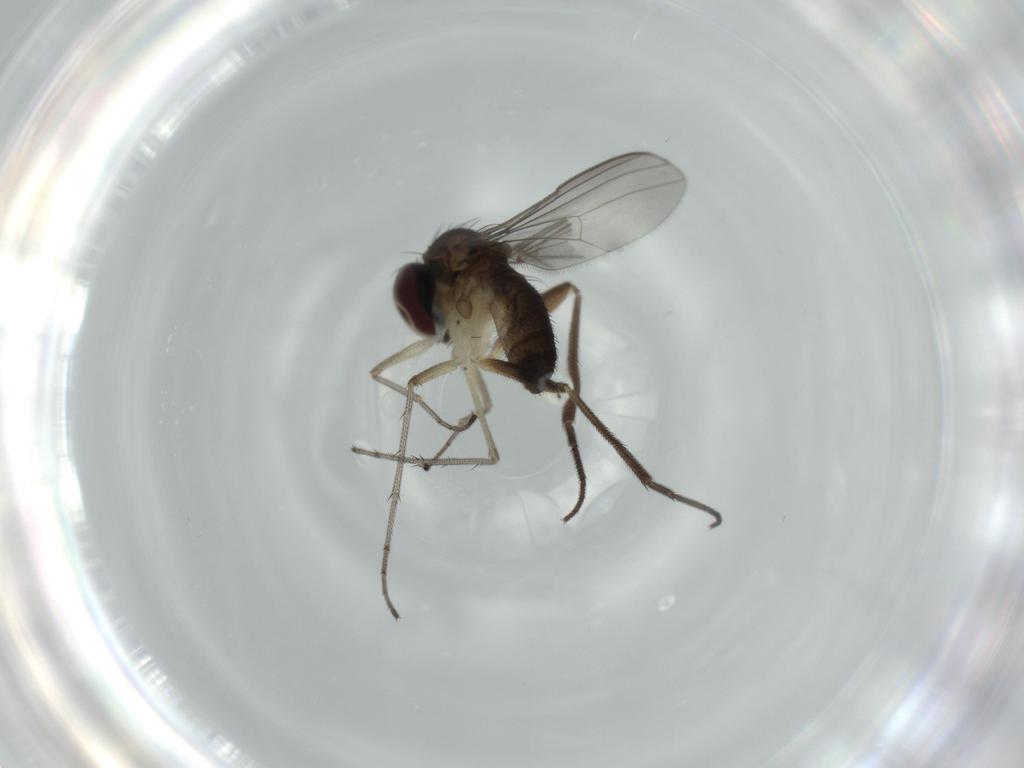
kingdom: Animalia
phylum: Arthropoda
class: Insecta
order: Diptera
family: Dolichopodidae
